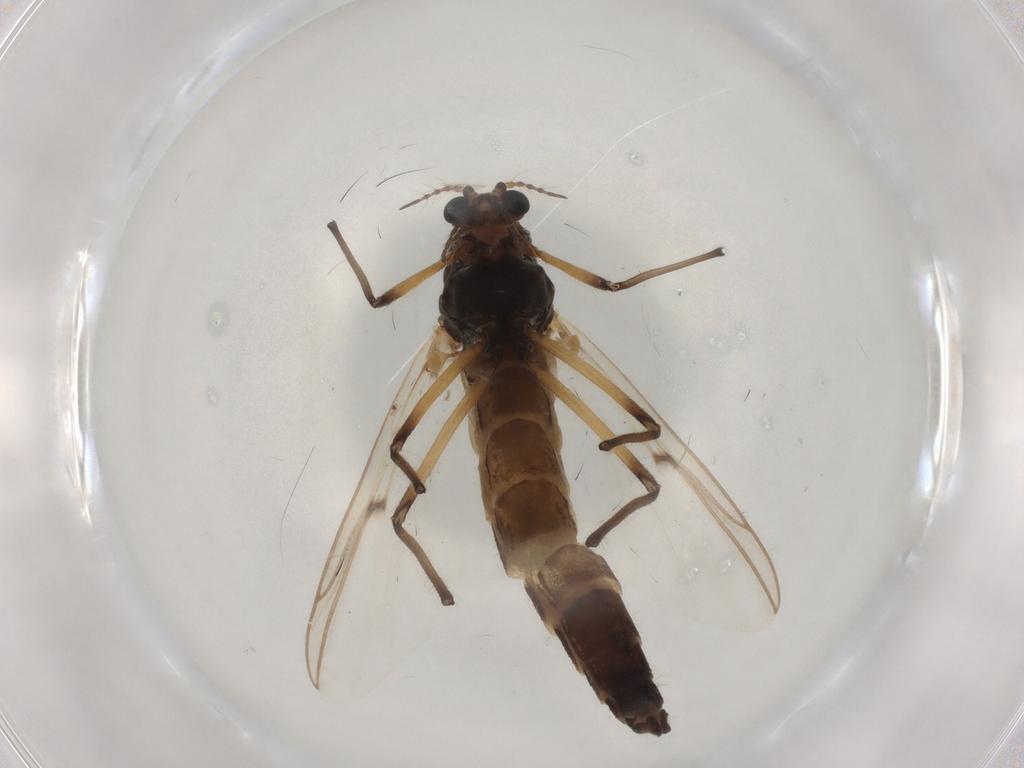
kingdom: Animalia
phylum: Arthropoda
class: Insecta
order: Diptera
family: Chironomidae
